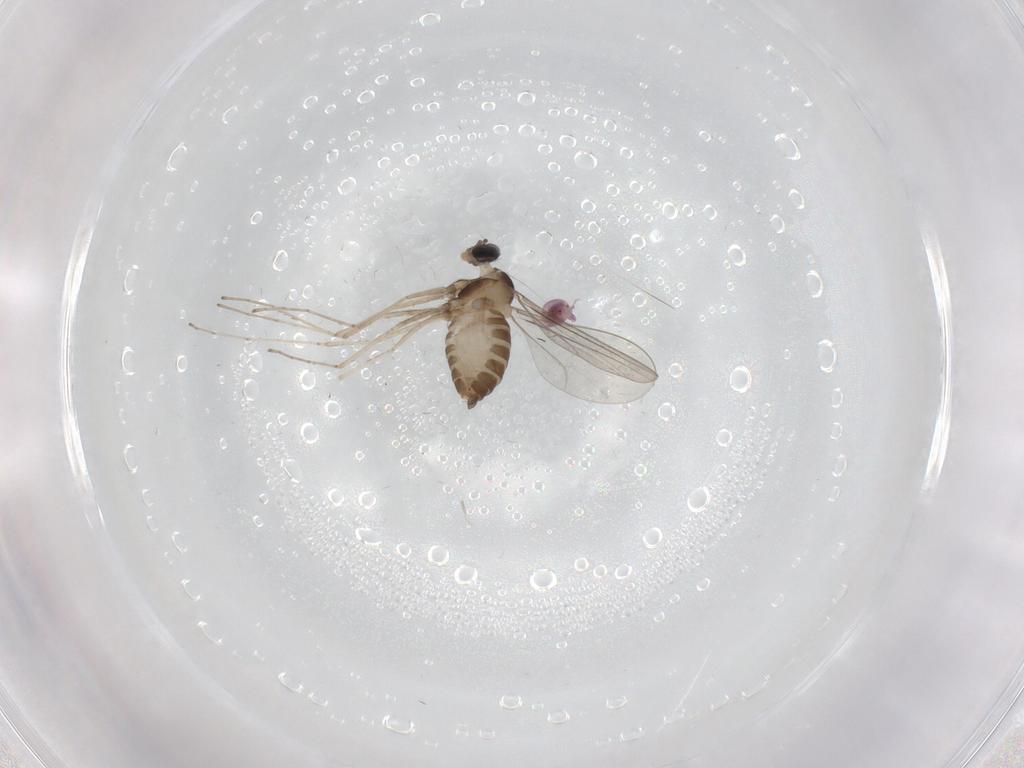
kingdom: Animalia
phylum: Arthropoda
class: Insecta
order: Diptera
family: Cecidomyiidae
